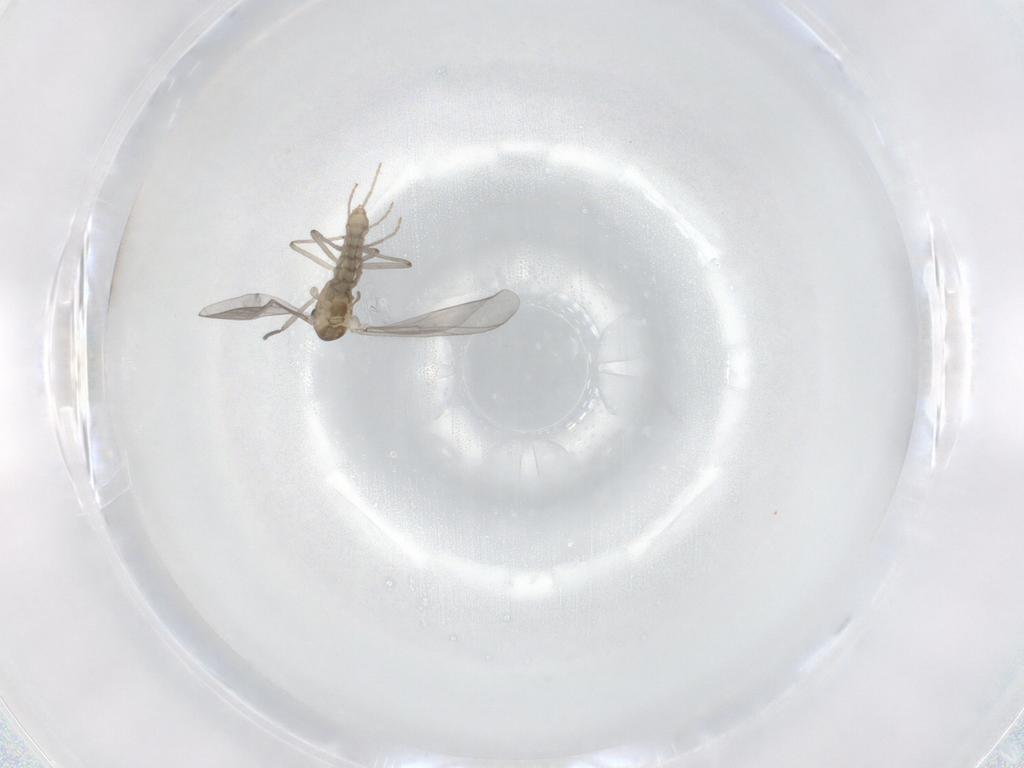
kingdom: Animalia
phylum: Arthropoda
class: Insecta
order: Diptera
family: Chironomidae
